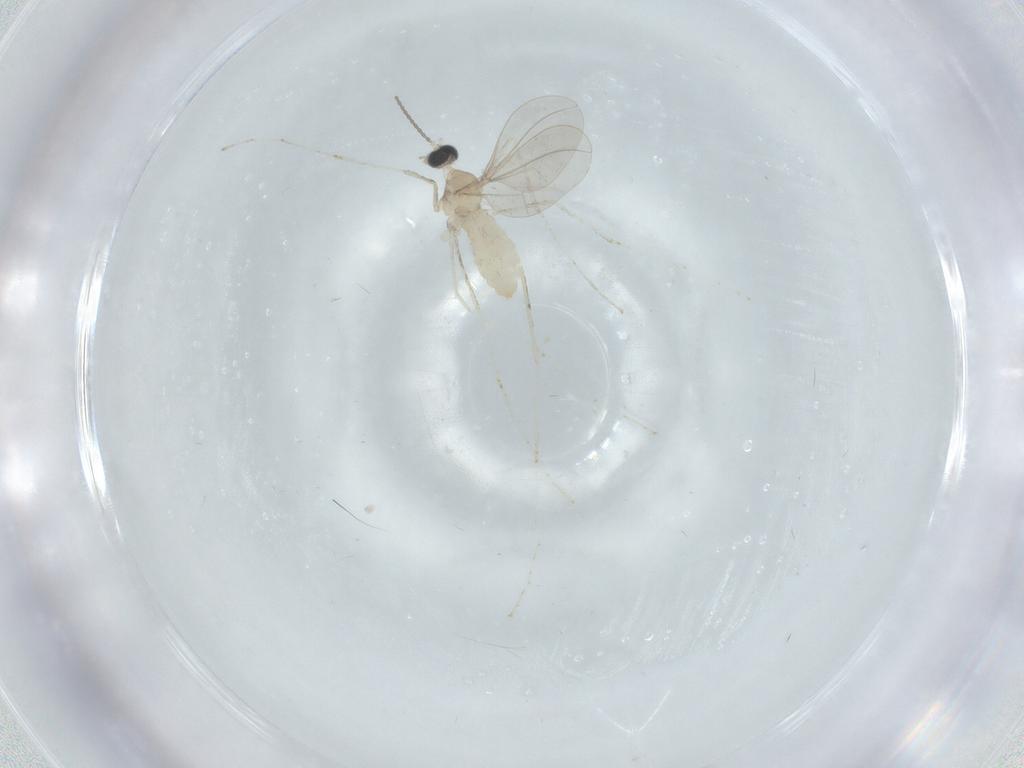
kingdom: Animalia
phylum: Arthropoda
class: Insecta
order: Diptera
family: Cecidomyiidae
